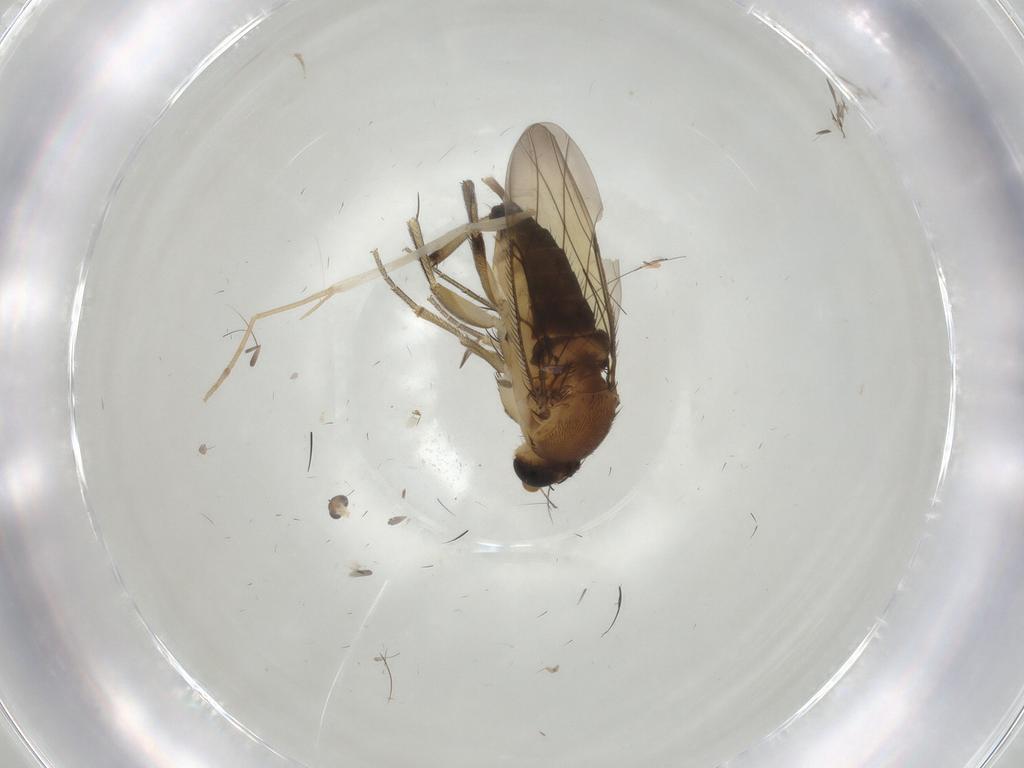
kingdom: Animalia
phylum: Arthropoda
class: Insecta
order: Diptera
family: Phoridae
